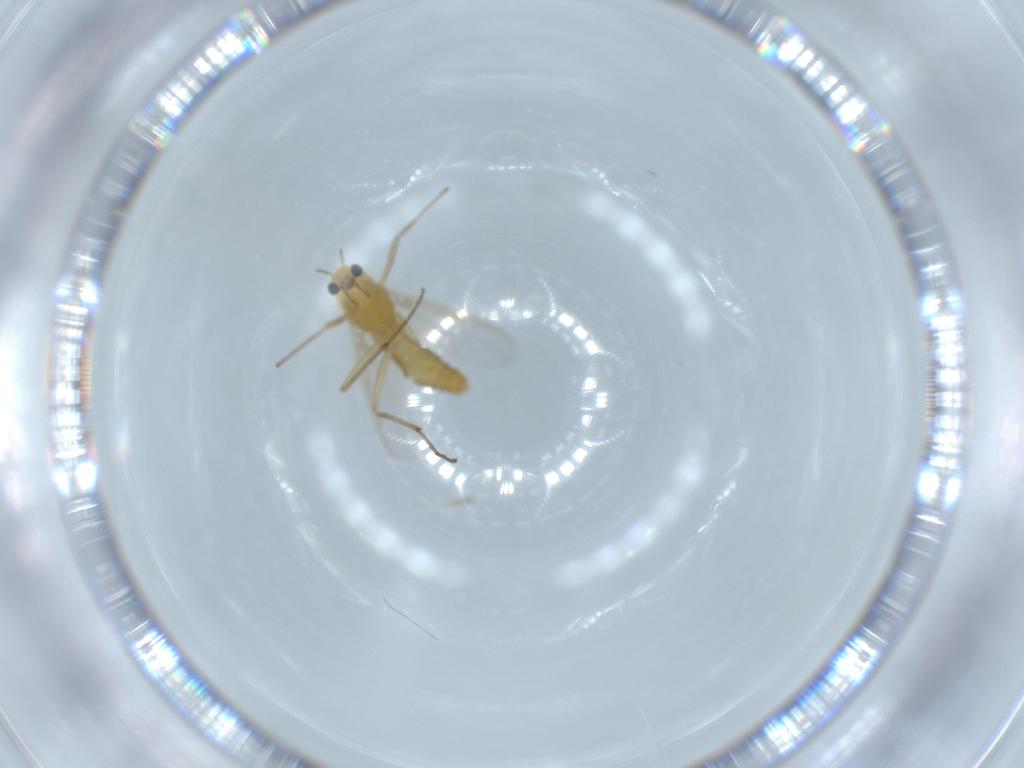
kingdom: Animalia
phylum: Arthropoda
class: Insecta
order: Diptera
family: Chironomidae
